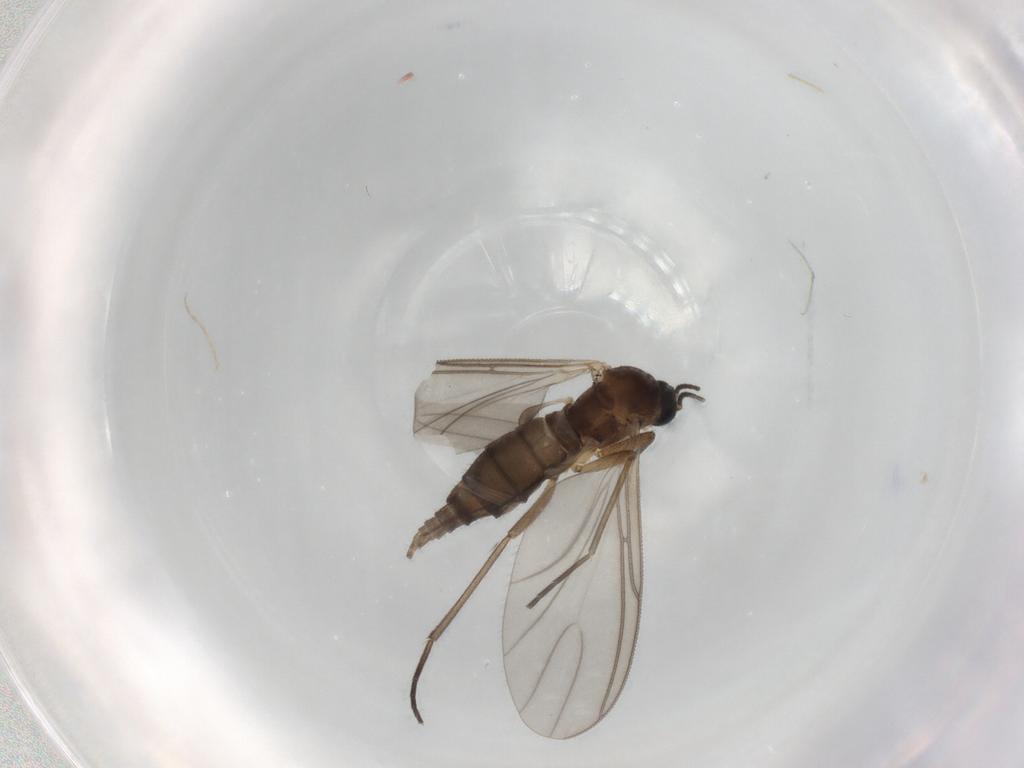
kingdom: Animalia
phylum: Arthropoda
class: Insecta
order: Diptera
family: Sciaridae
